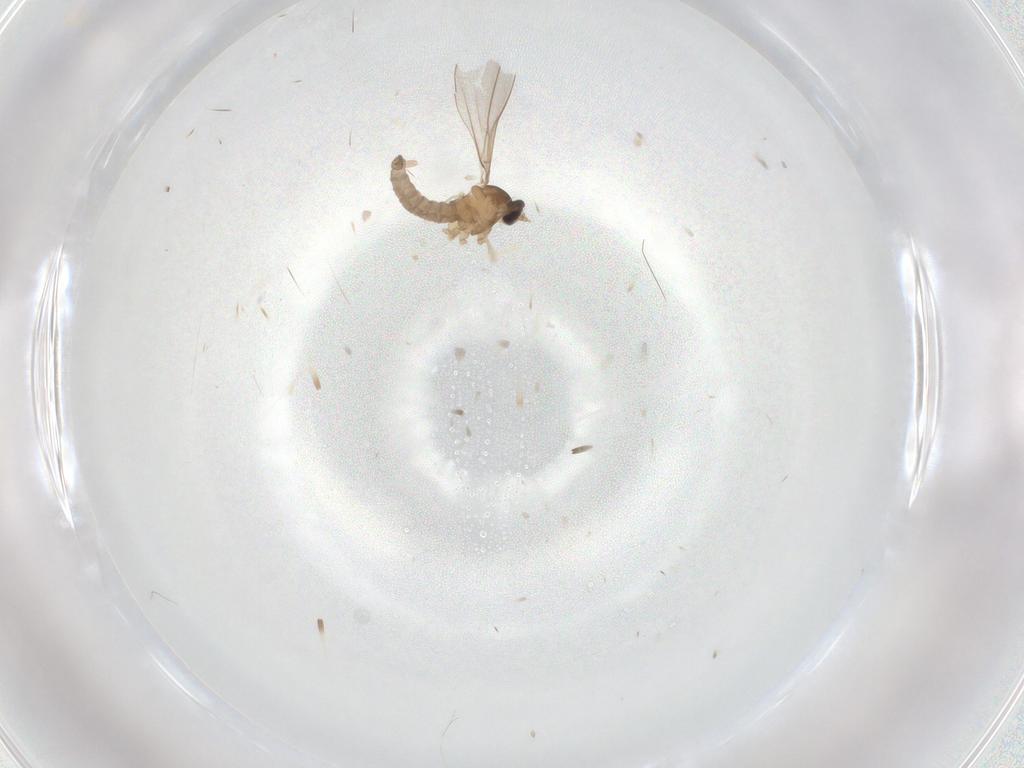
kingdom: Animalia
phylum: Arthropoda
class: Insecta
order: Diptera
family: Cecidomyiidae
